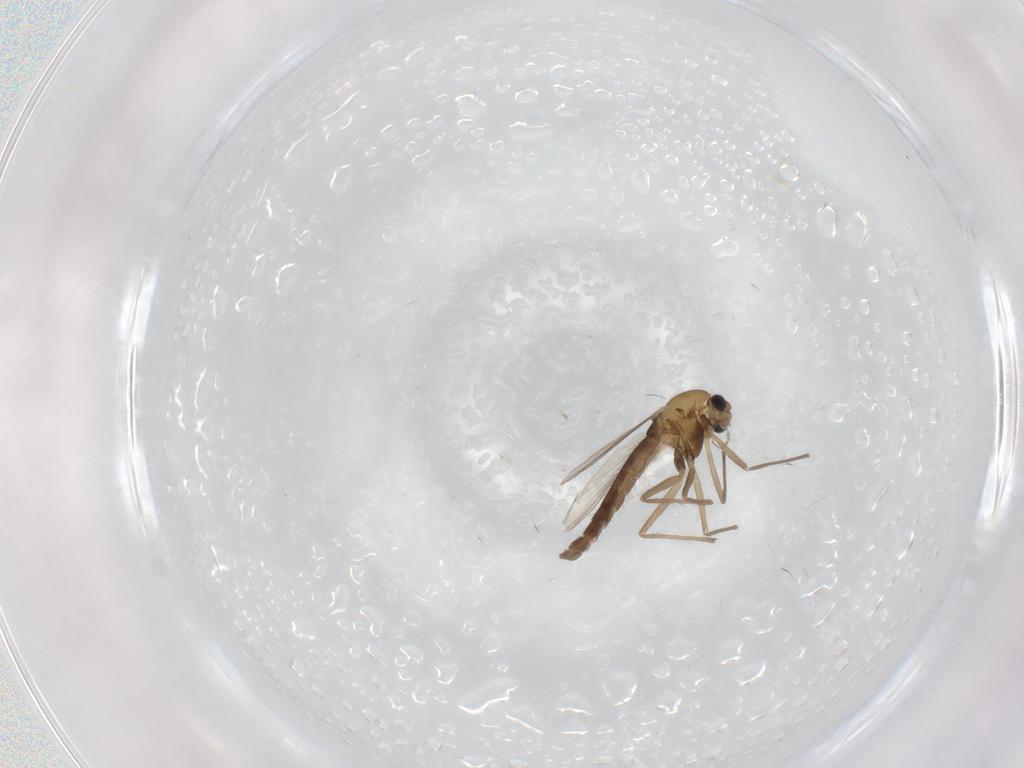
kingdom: Animalia
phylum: Arthropoda
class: Insecta
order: Diptera
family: Chironomidae
